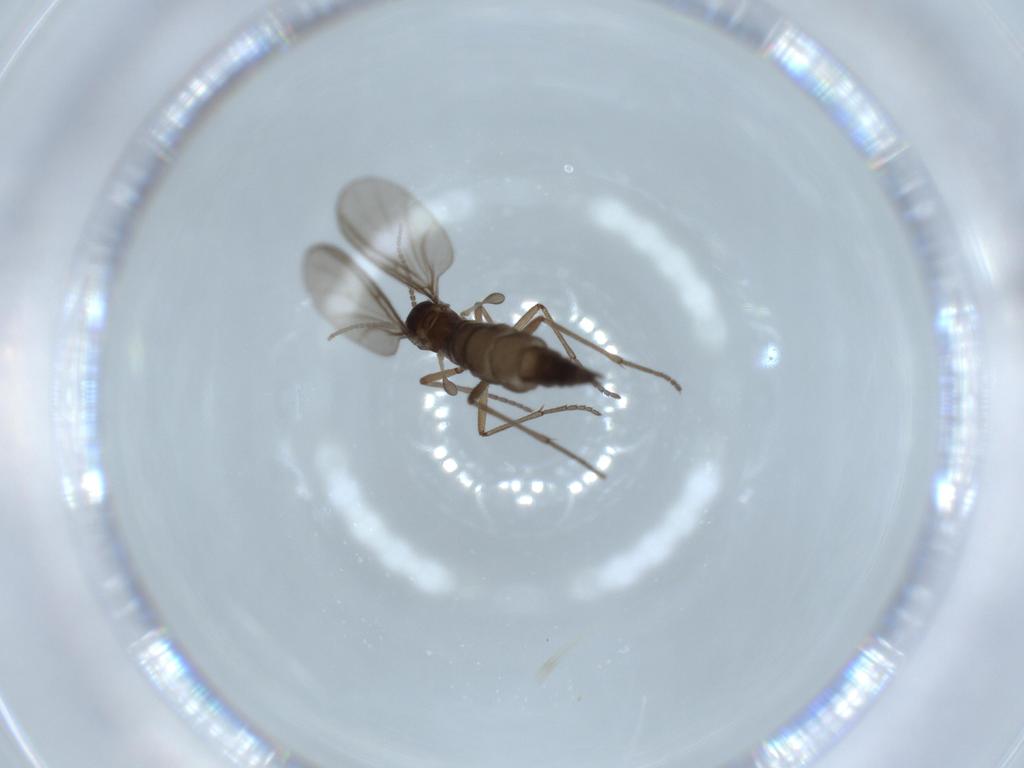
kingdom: Animalia
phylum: Arthropoda
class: Insecta
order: Diptera
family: Sciaridae
